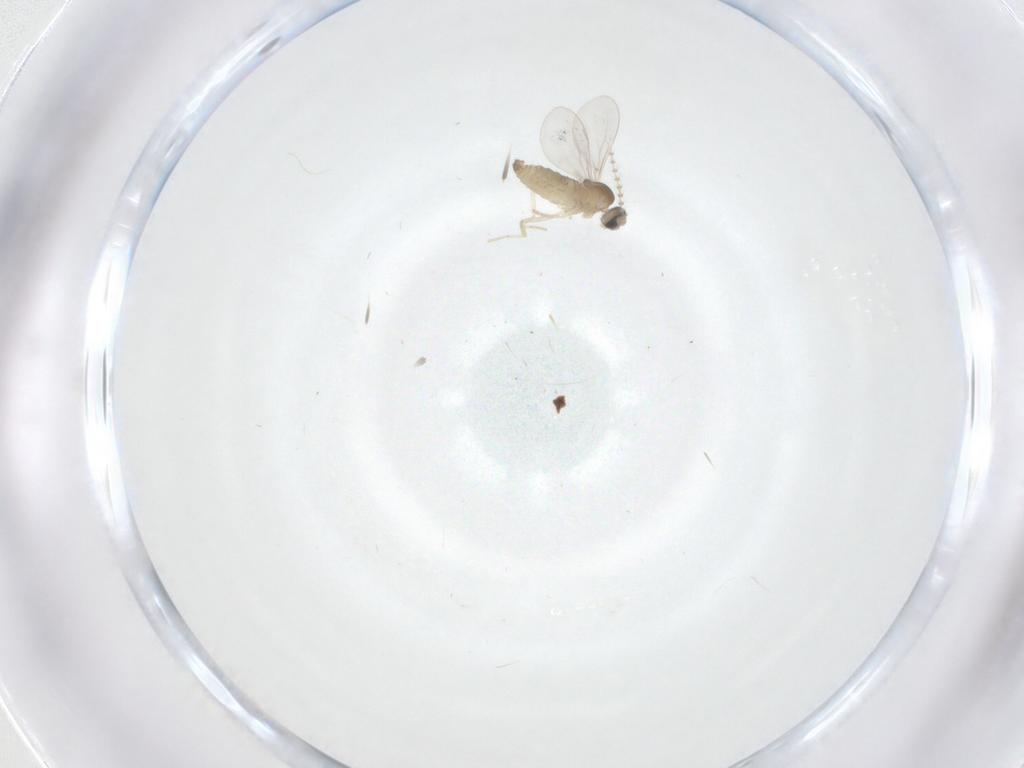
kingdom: Animalia
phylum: Arthropoda
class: Insecta
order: Diptera
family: Cecidomyiidae
